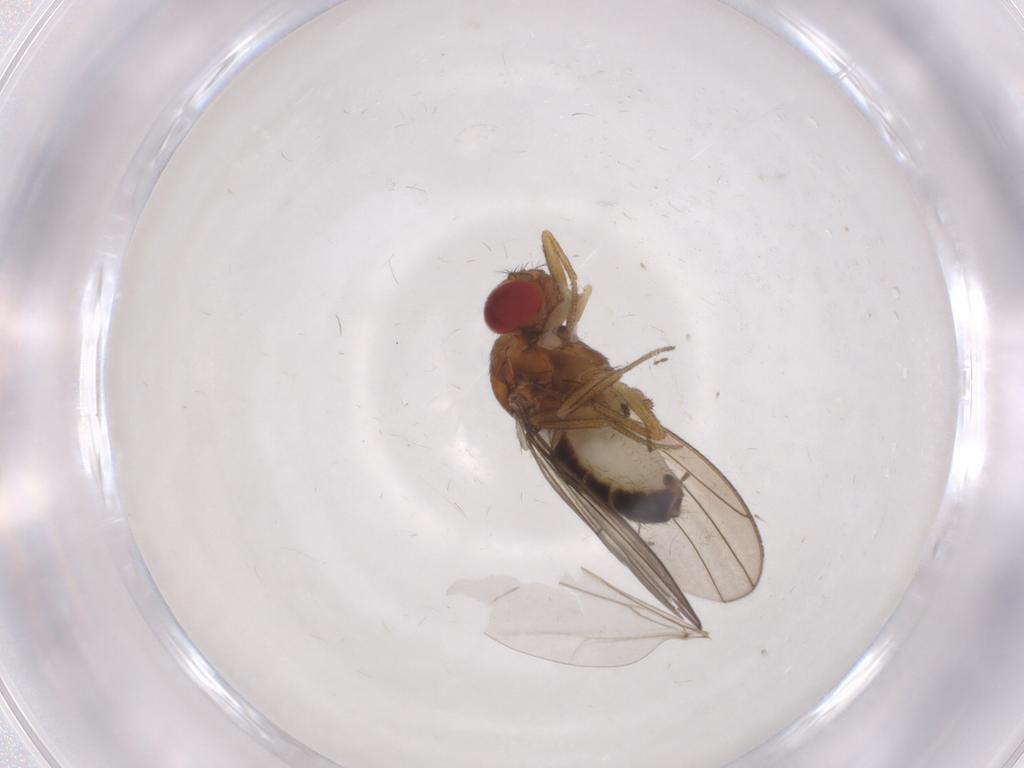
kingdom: Animalia
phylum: Arthropoda
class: Insecta
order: Diptera
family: Drosophilidae
